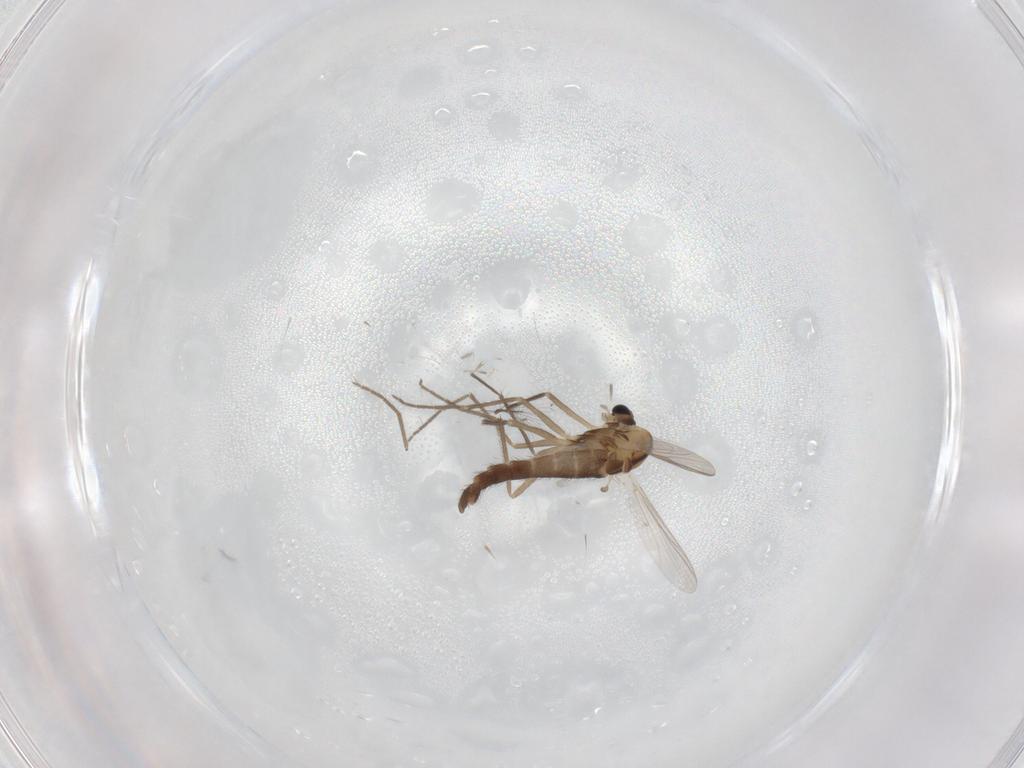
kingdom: Animalia
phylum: Arthropoda
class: Insecta
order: Diptera
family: Chironomidae
